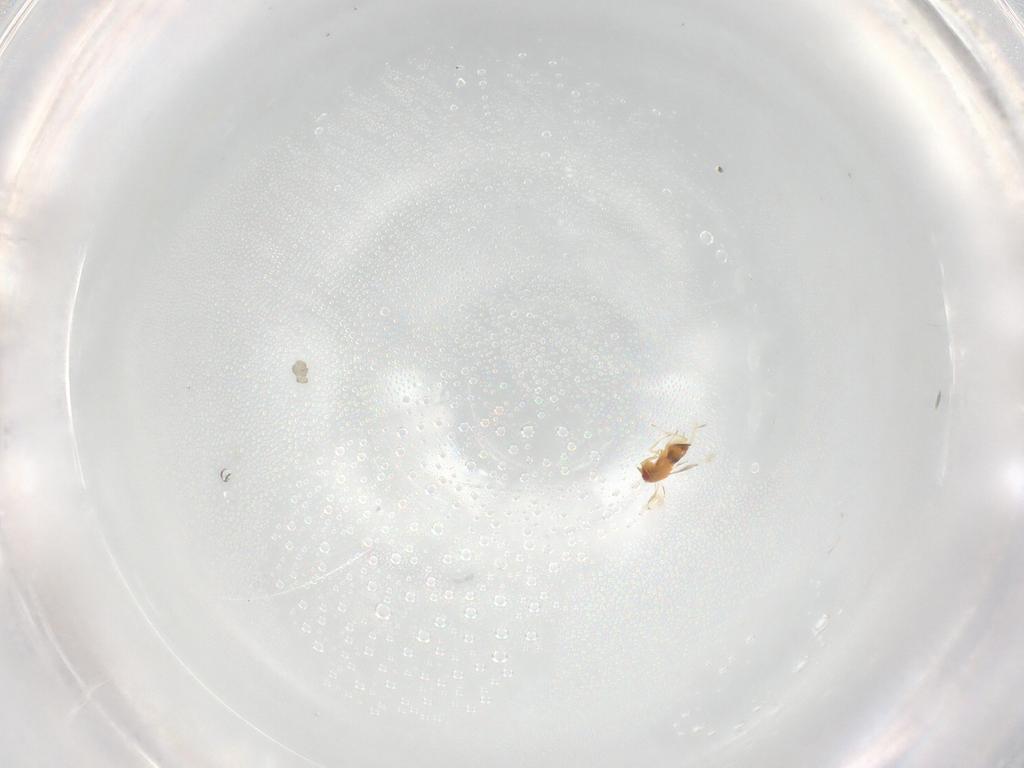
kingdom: Animalia
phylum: Arthropoda
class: Insecta
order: Hymenoptera
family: Trichogrammatidae
